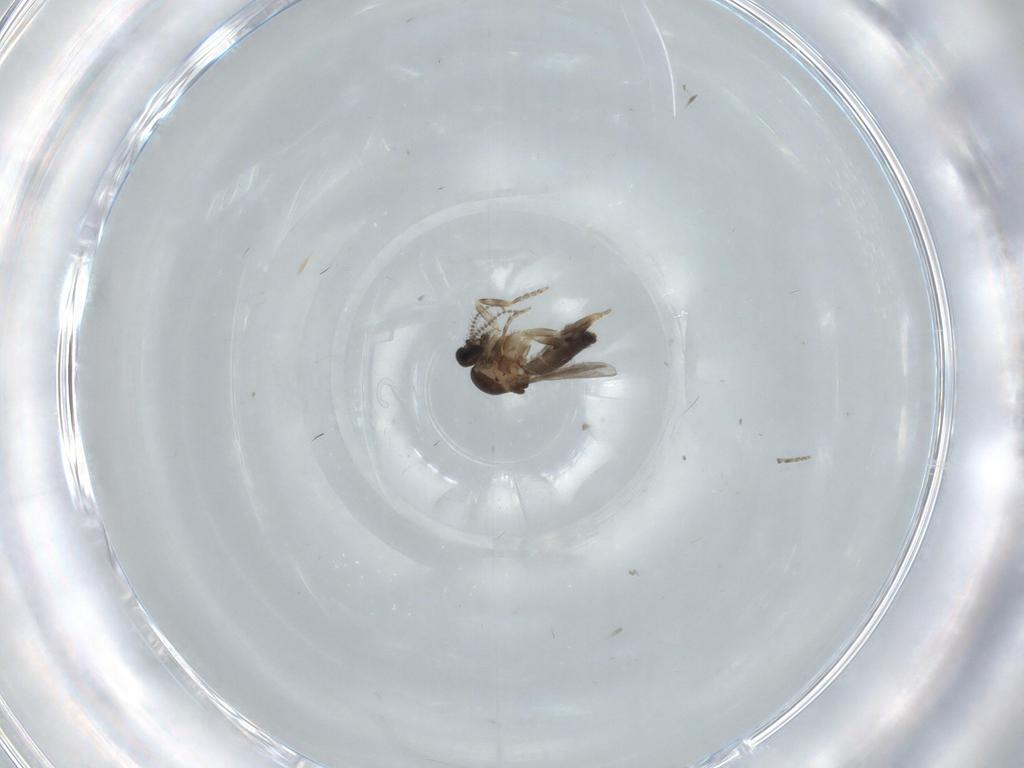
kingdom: Animalia
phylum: Arthropoda
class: Insecta
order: Diptera
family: Ceratopogonidae
